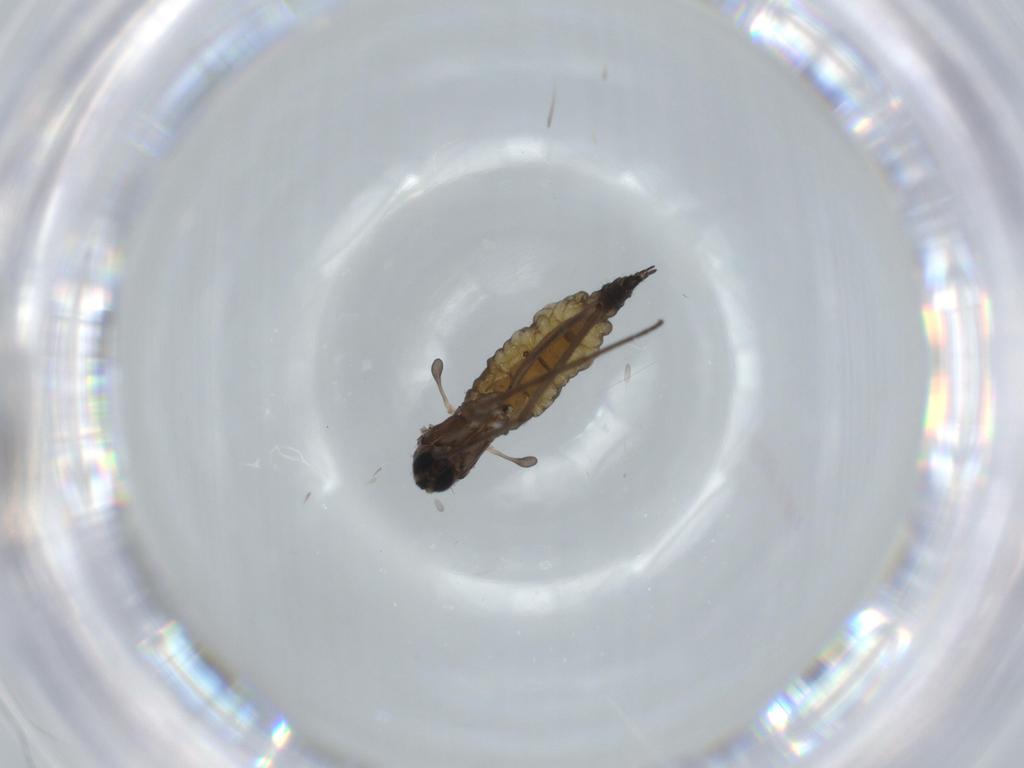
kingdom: Animalia
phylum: Arthropoda
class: Insecta
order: Diptera
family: Sciaridae
